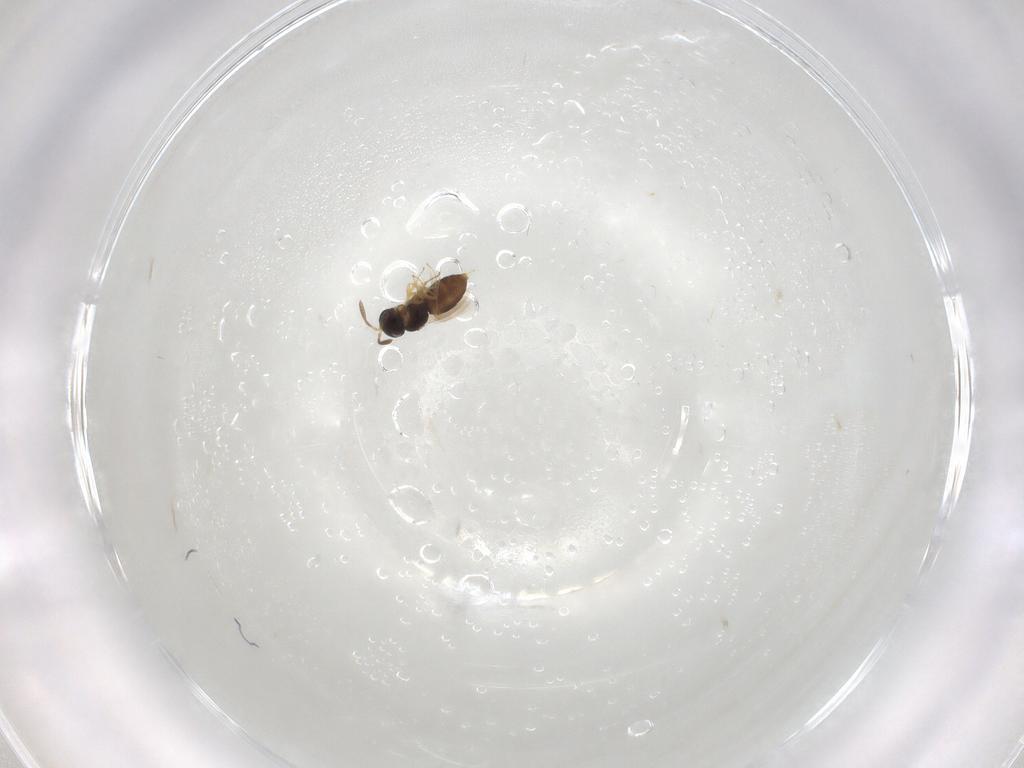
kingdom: Animalia
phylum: Arthropoda
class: Insecta
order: Hymenoptera
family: Scelionidae
